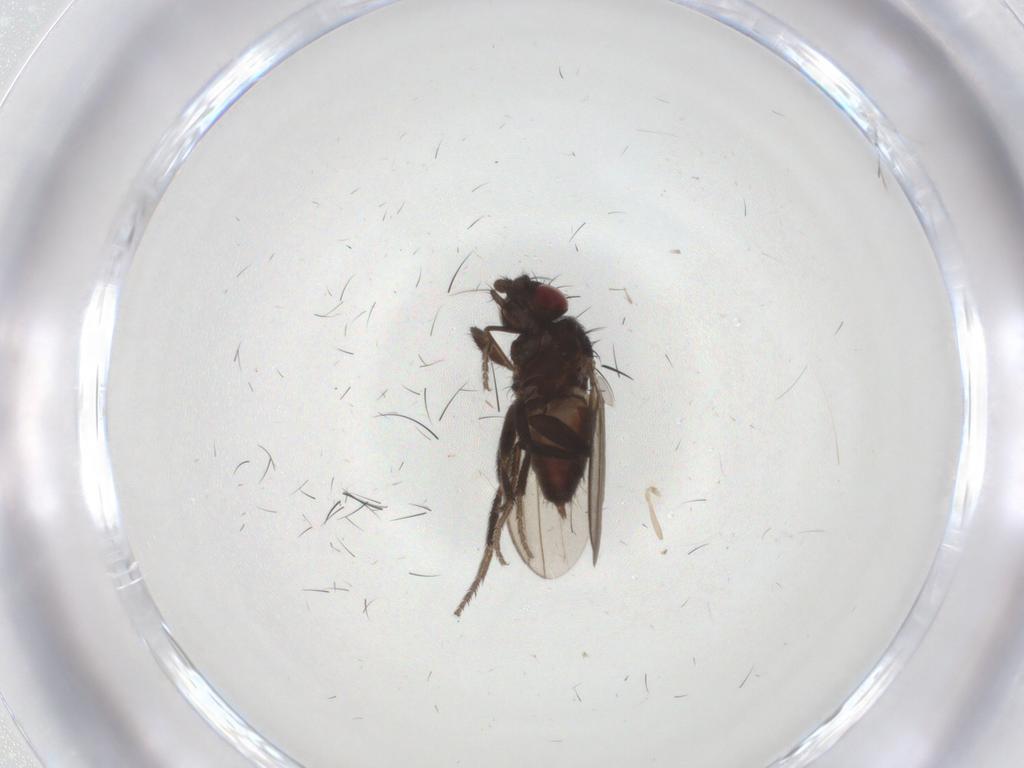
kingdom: Animalia
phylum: Arthropoda
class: Insecta
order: Diptera
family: Milichiidae
